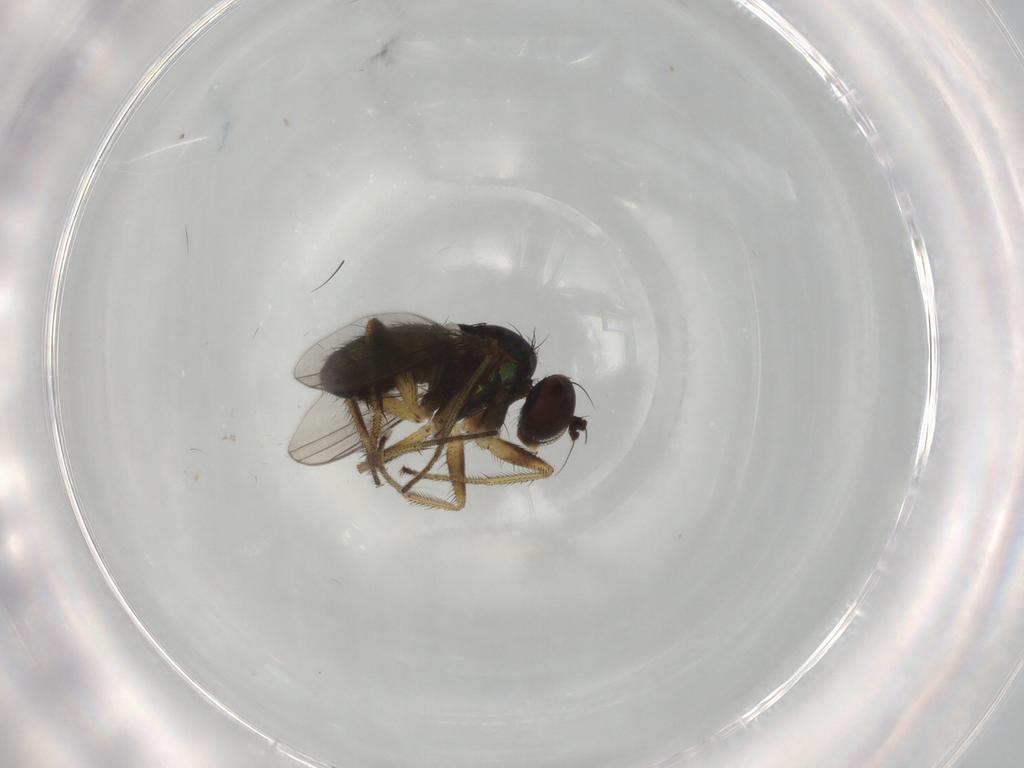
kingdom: Animalia
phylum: Arthropoda
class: Insecta
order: Diptera
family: Dolichopodidae
